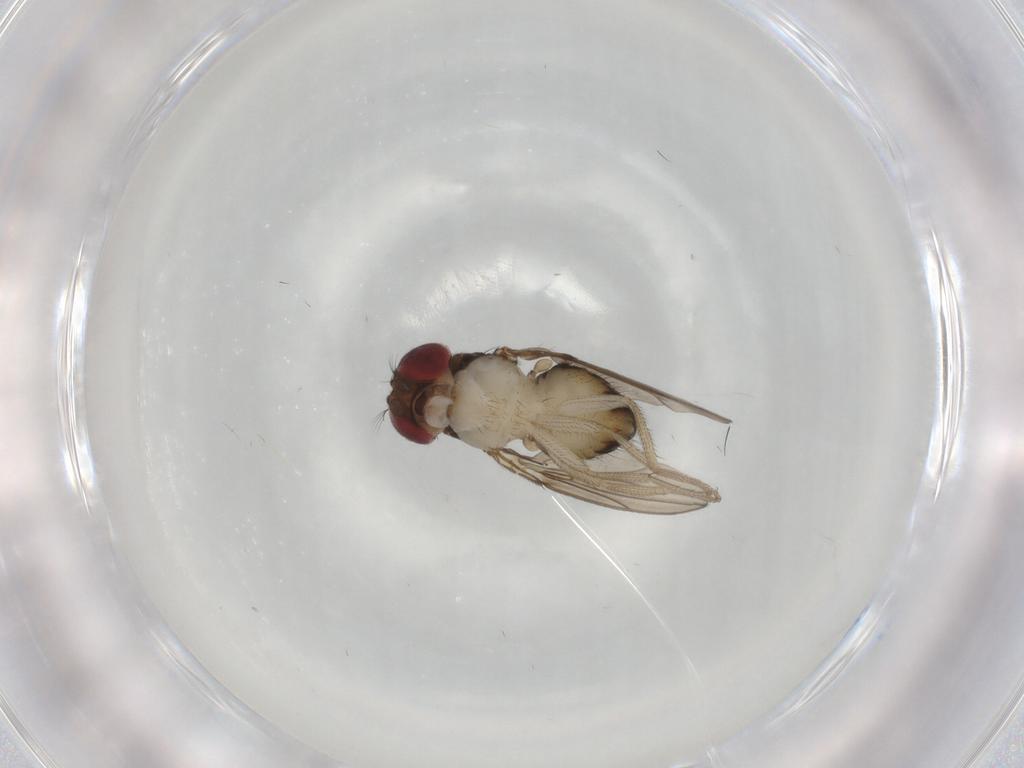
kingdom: Animalia
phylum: Arthropoda
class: Insecta
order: Diptera
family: Drosophilidae
